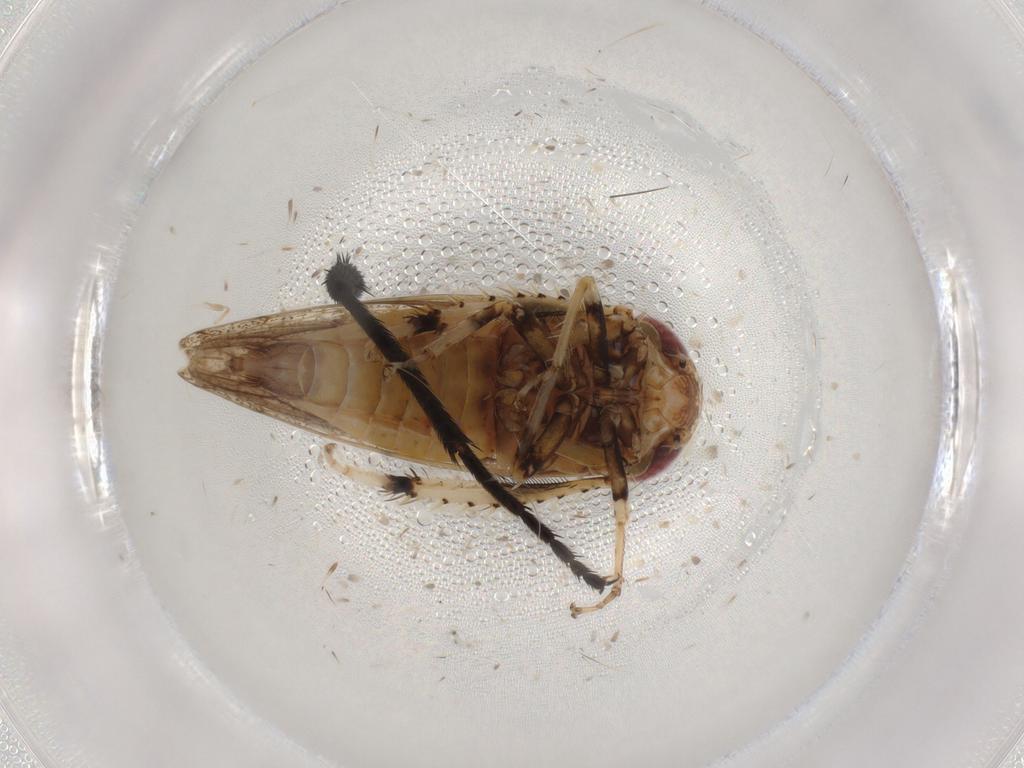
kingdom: Animalia
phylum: Arthropoda
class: Insecta
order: Hemiptera
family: Cicadellidae
